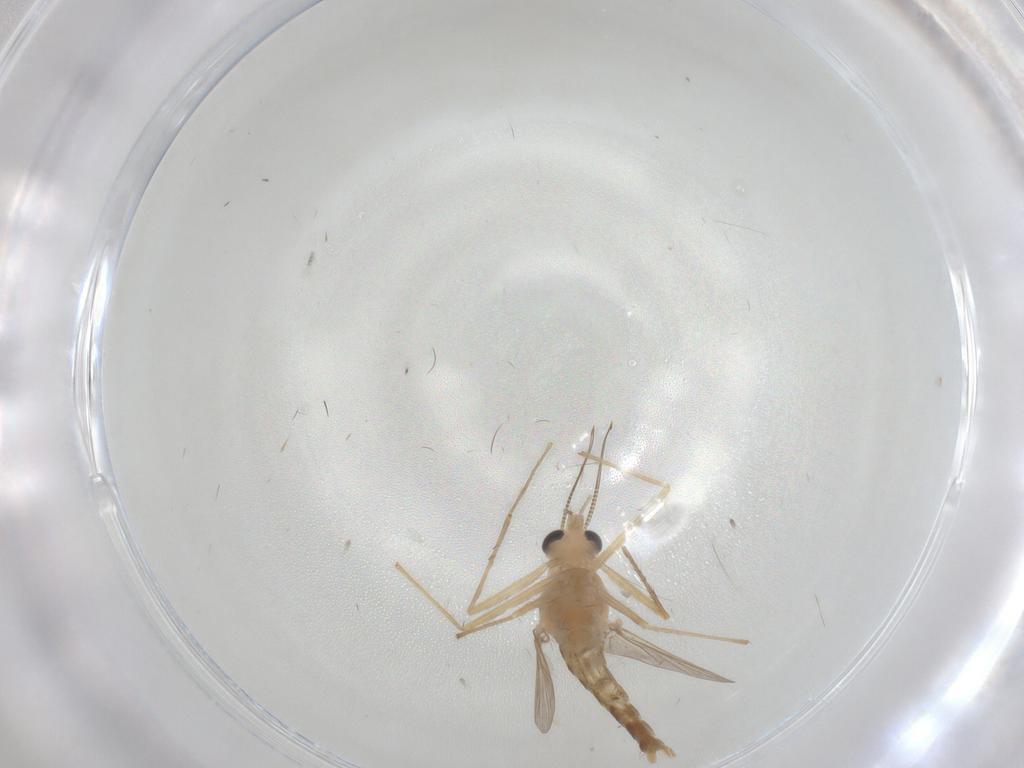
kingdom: Animalia
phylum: Arthropoda
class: Insecta
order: Diptera
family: Chironomidae
